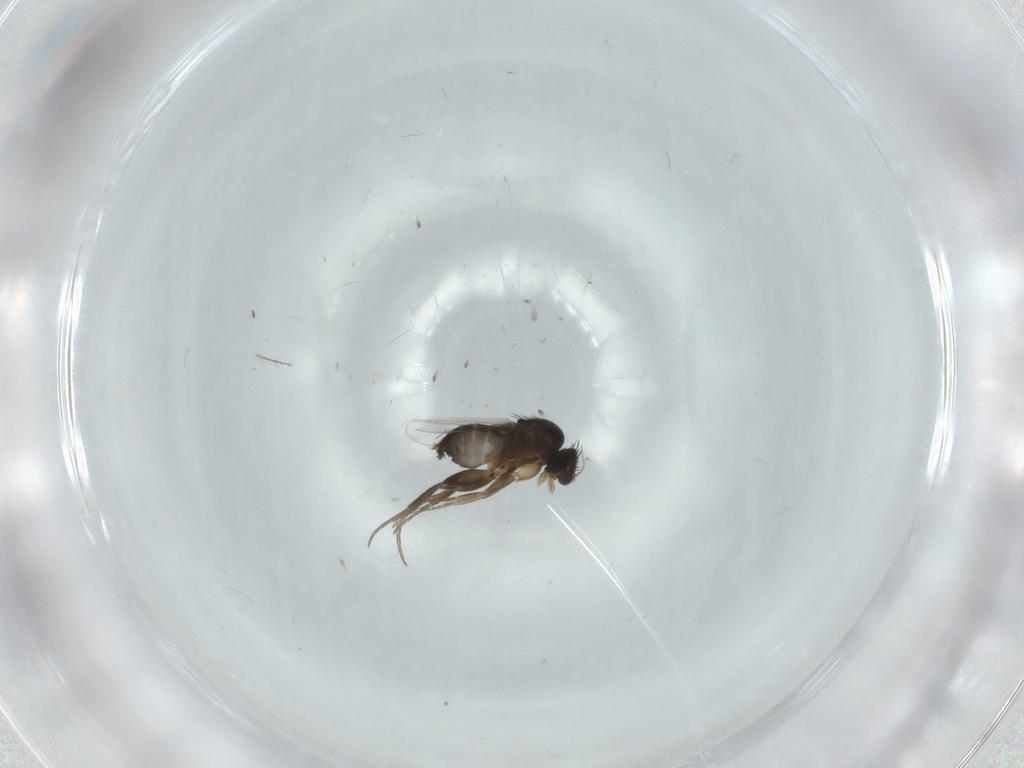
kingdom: Animalia
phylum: Arthropoda
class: Insecta
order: Diptera
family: Phoridae
